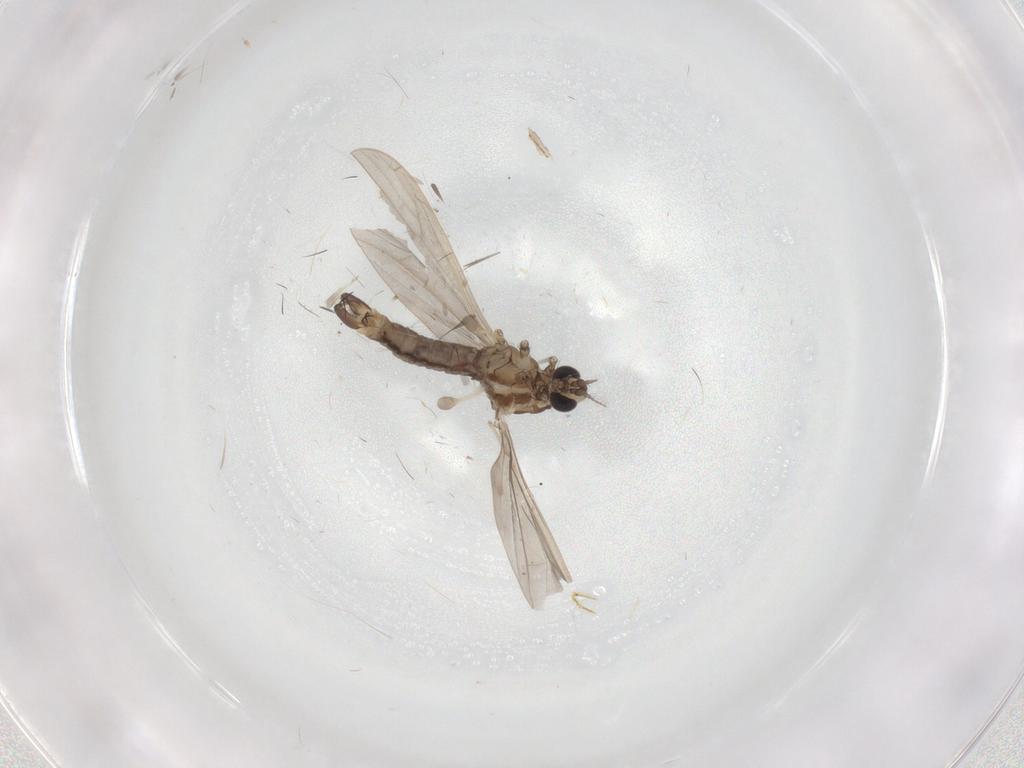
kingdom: Animalia
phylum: Arthropoda
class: Insecta
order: Diptera
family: Limoniidae
